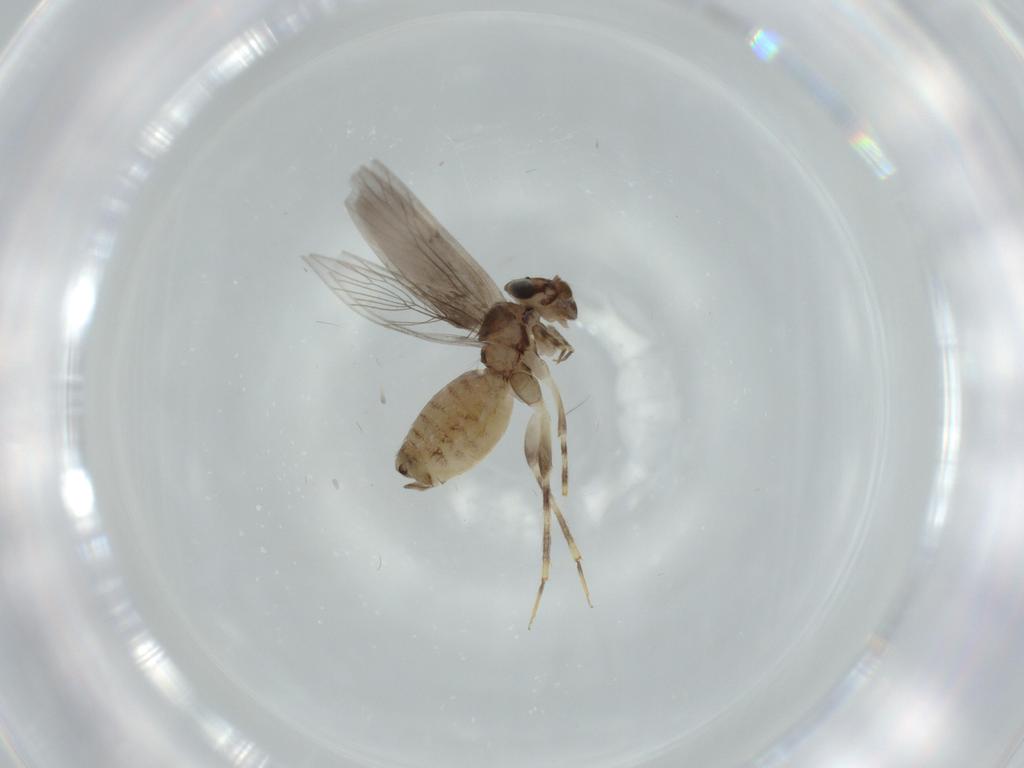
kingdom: Animalia
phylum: Arthropoda
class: Insecta
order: Psocodea
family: Lepidopsocidae
